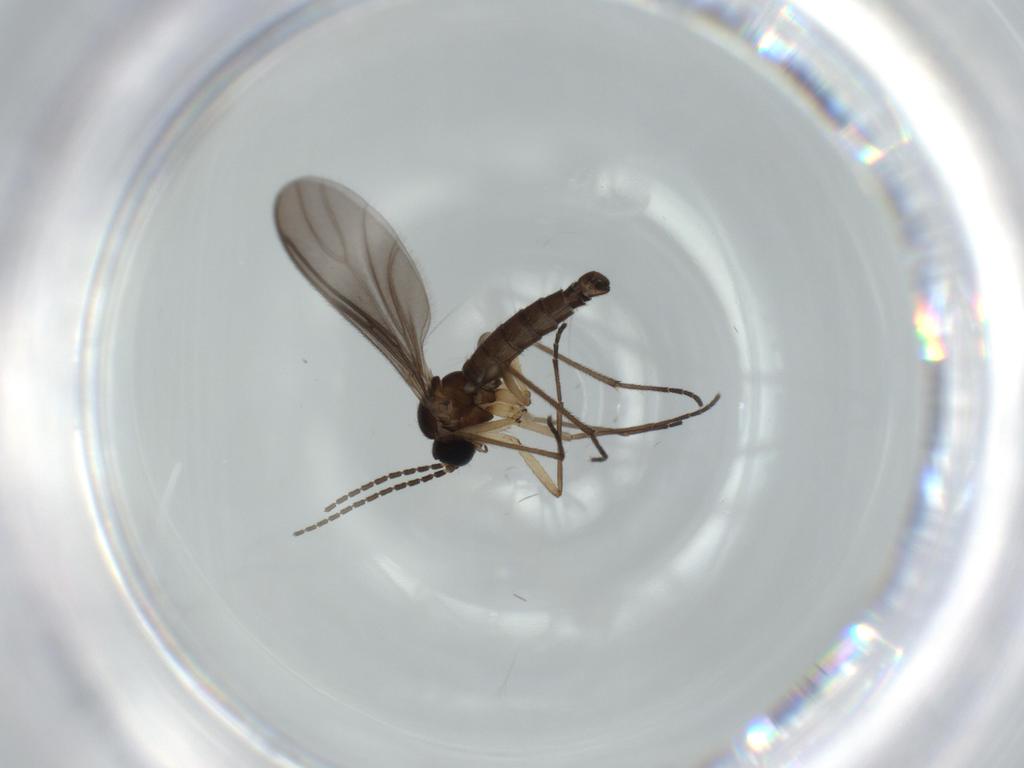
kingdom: Animalia
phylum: Arthropoda
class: Insecta
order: Diptera
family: Sciaridae
